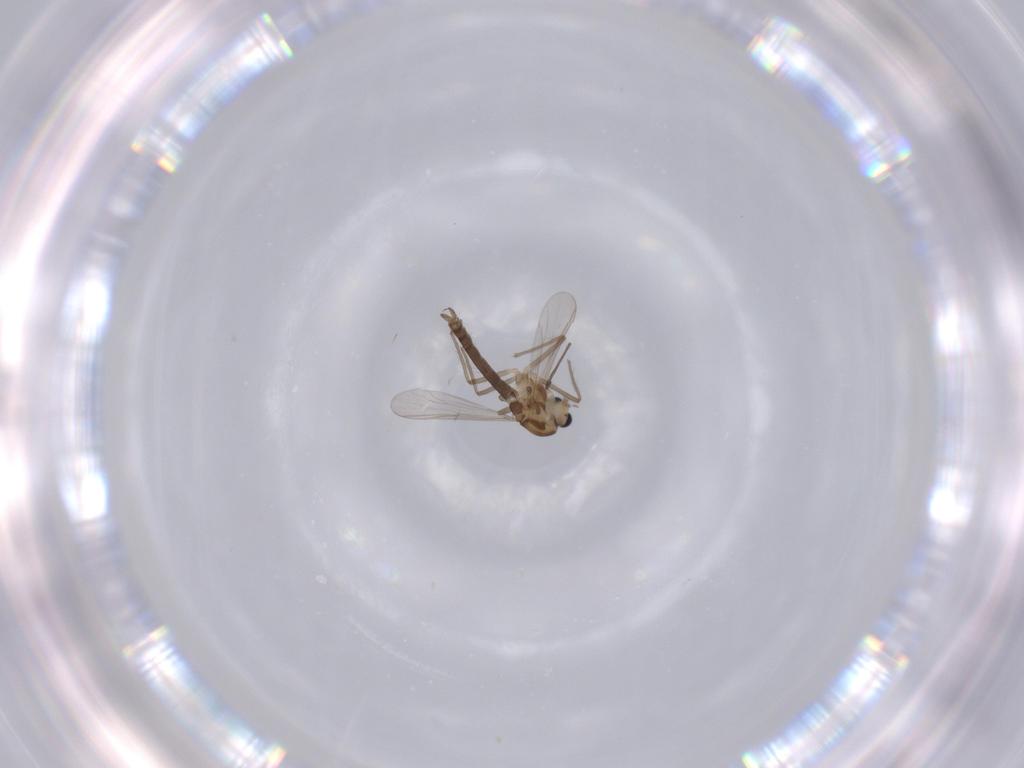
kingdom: Animalia
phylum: Arthropoda
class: Insecta
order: Diptera
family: Chironomidae
